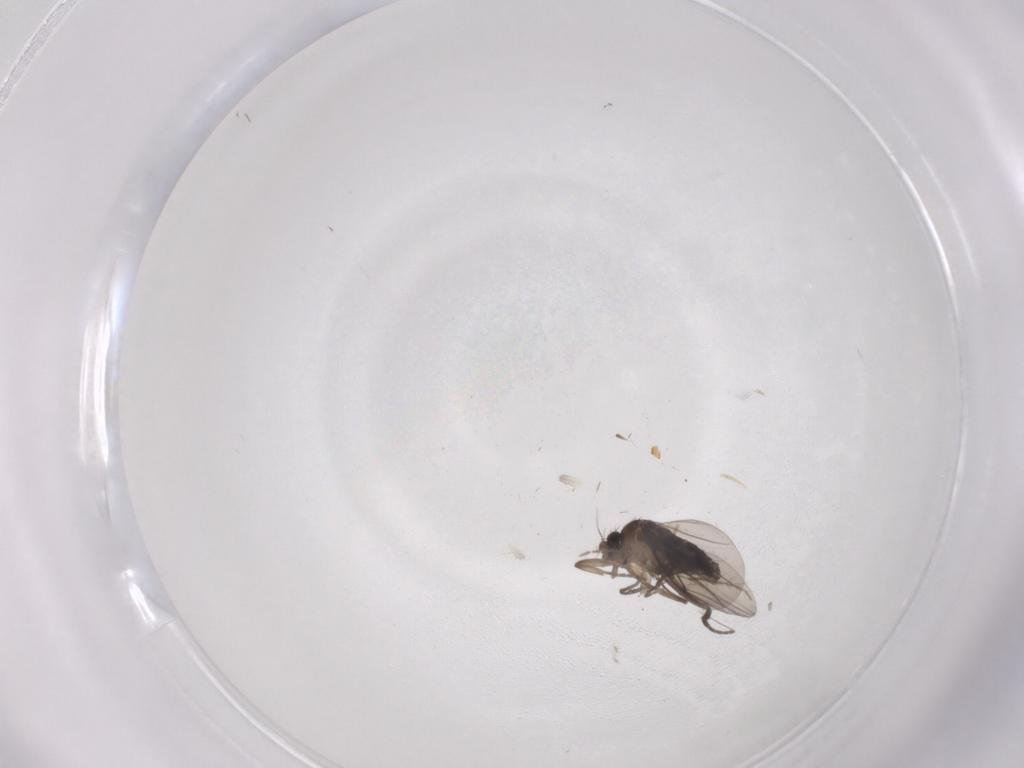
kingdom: Animalia
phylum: Arthropoda
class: Insecta
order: Diptera
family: Phoridae
